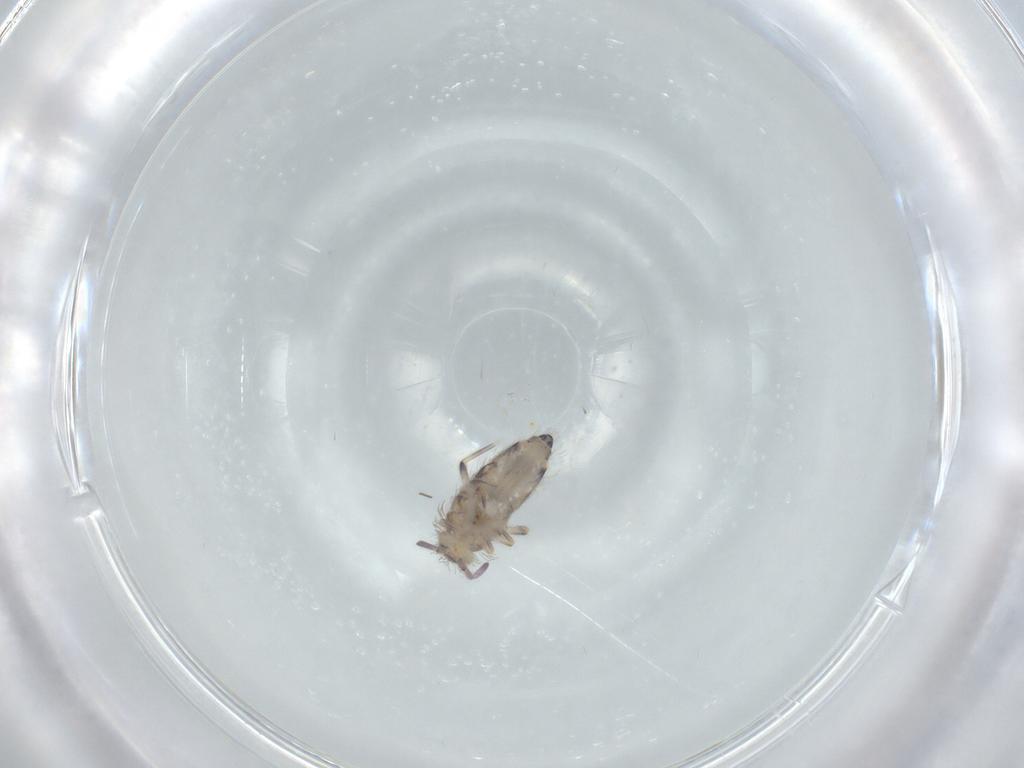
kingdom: Animalia
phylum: Arthropoda
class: Collembola
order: Entomobryomorpha
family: Entomobryidae
